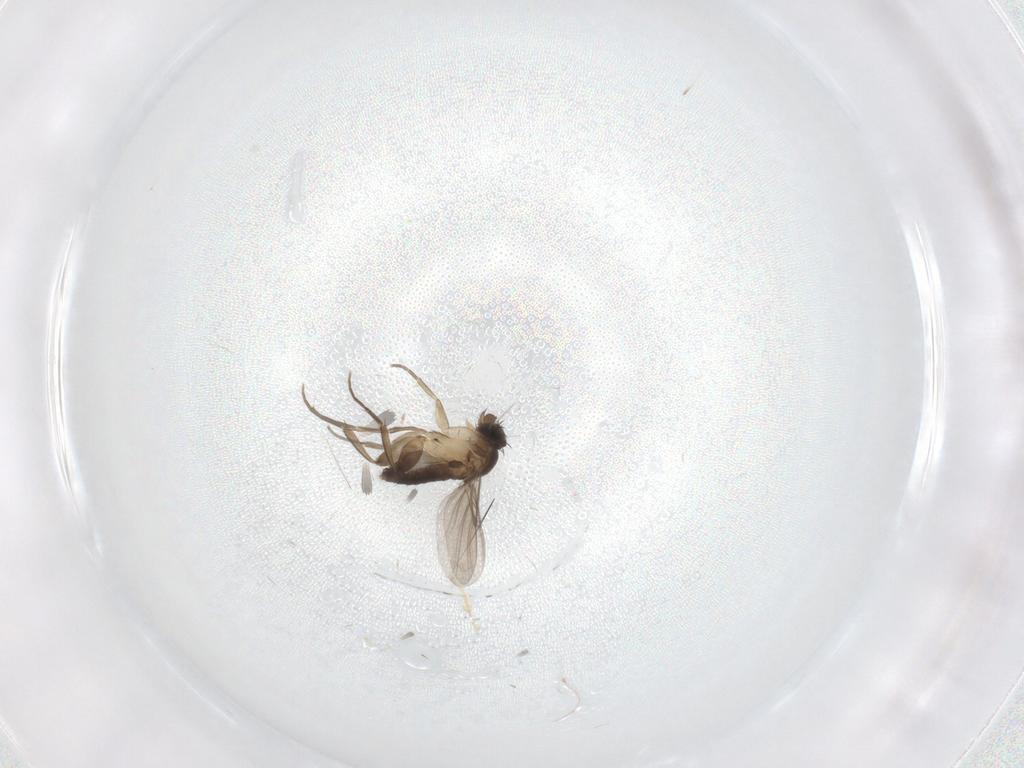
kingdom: Animalia
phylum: Arthropoda
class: Insecta
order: Diptera
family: Phoridae
